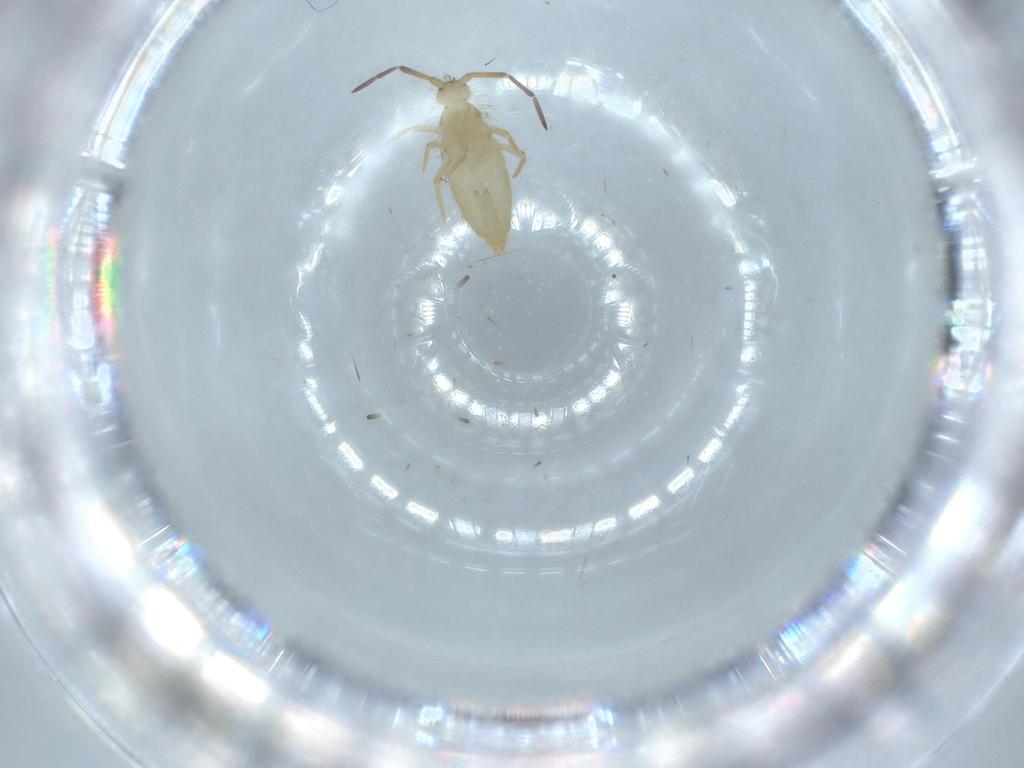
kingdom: Animalia
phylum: Arthropoda
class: Collembola
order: Entomobryomorpha
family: Entomobryidae
